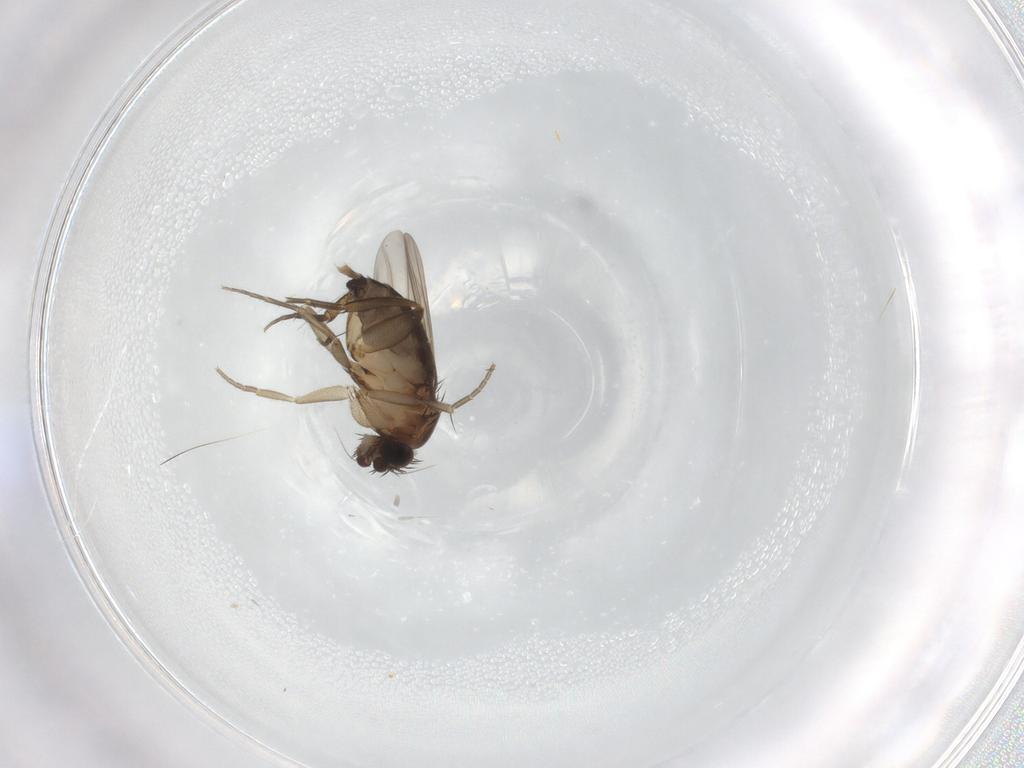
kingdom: Animalia
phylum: Arthropoda
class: Insecta
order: Diptera
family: Phoridae
